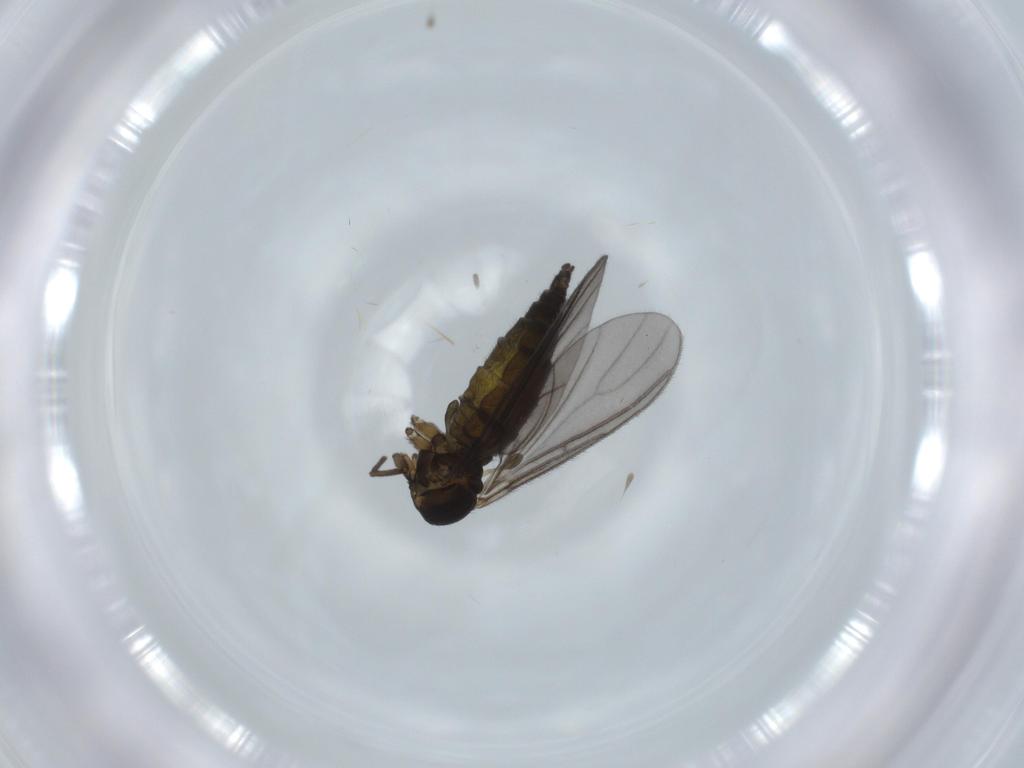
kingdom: Animalia
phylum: Arthropoda
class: Insecta
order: Diptera
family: Sciaridae
